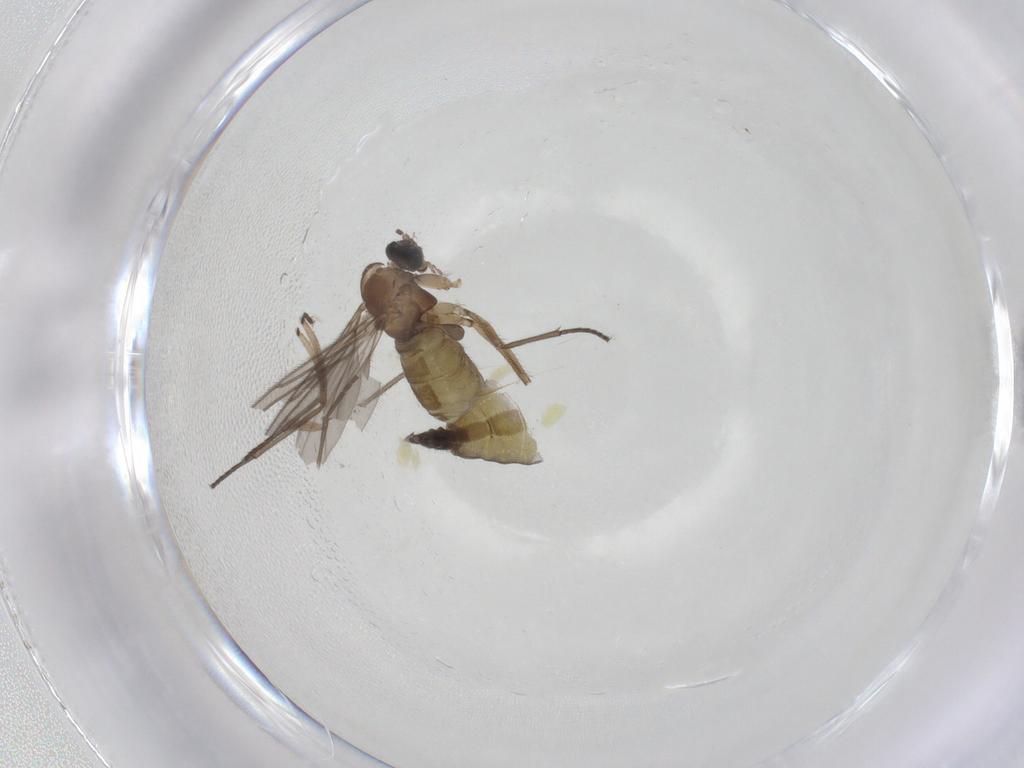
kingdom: Animalia
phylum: Arthropoda
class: Insecta
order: Diptera
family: Sciaridae
